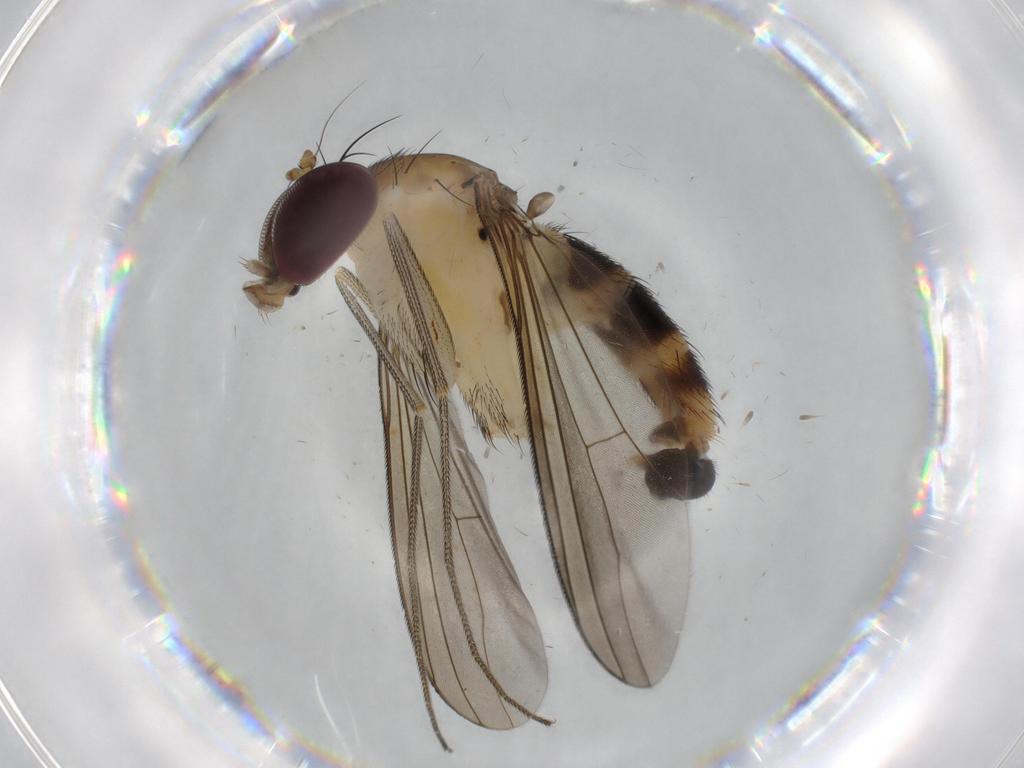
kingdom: Animalia
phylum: Arthropoda
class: Insecta
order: Diptera
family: Dolichopodidae
